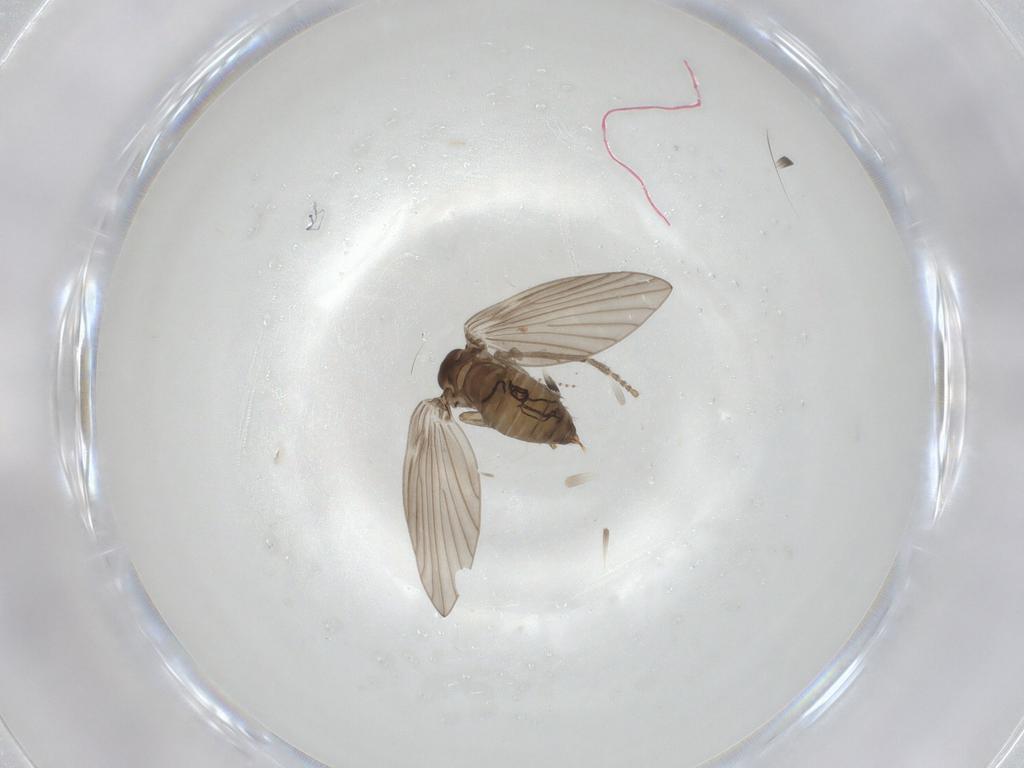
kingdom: Animalia
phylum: Arthropoda
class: Insecta
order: Diptera
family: Psychodidae
